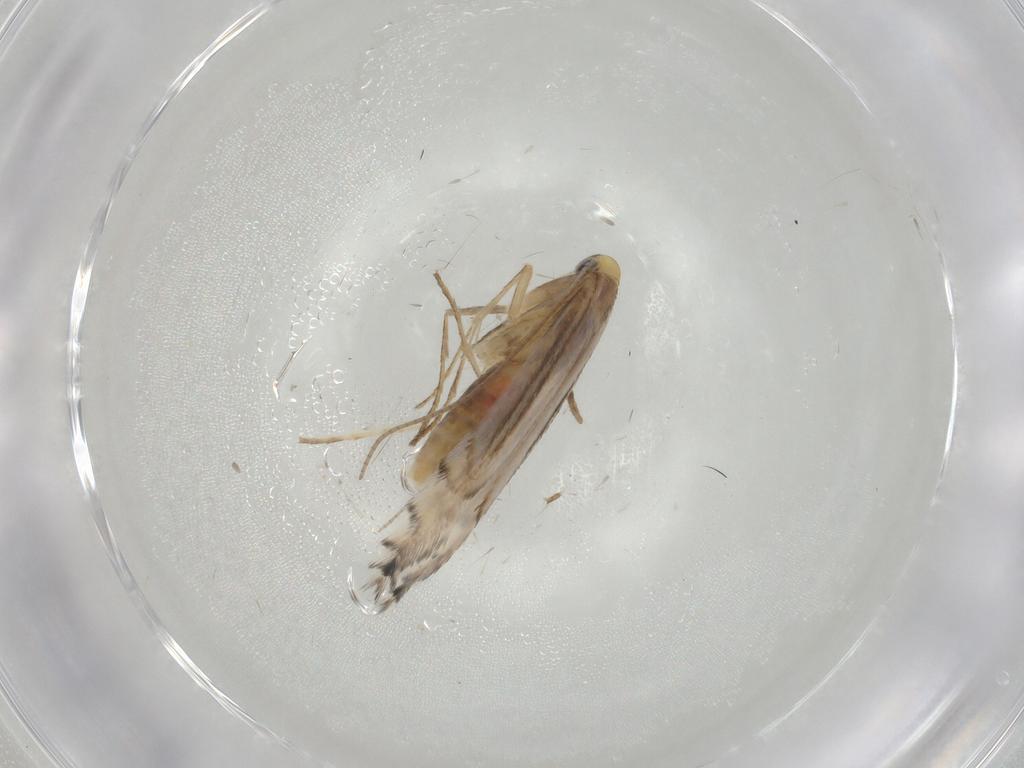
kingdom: Animalia
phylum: Arthropoda
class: Insecta
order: Lepidoptera
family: Gracillariidae
